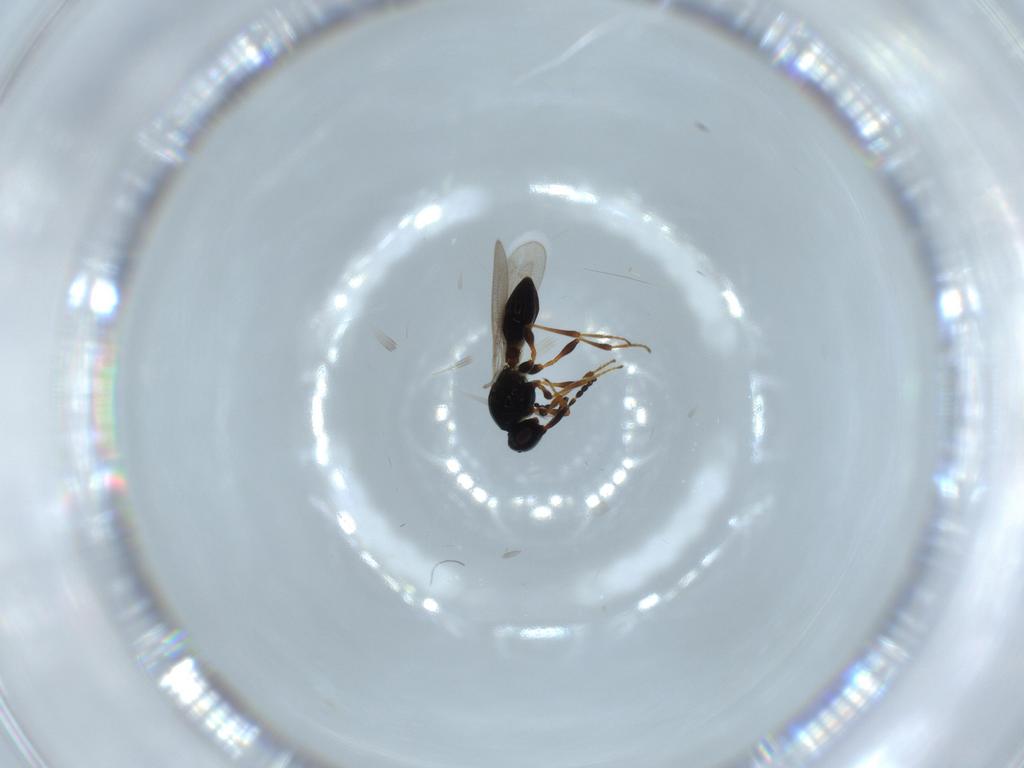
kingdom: Animalia
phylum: Arthropoda
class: Insecta
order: Hymenoptera
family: Platygastridae
